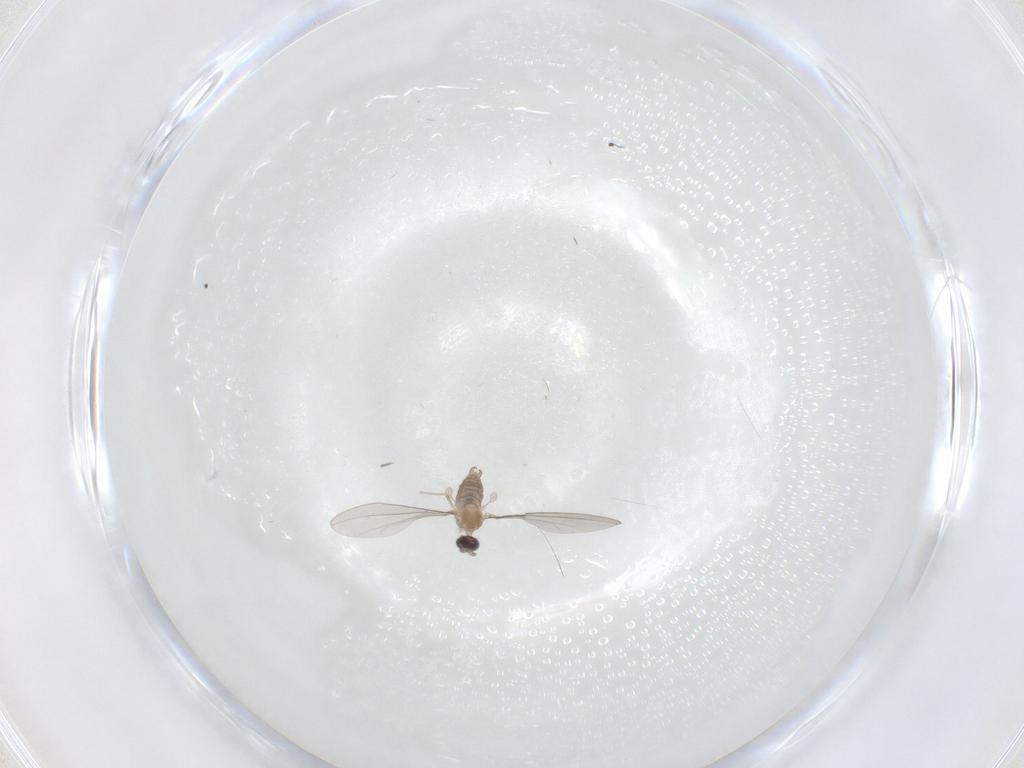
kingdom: Animalia
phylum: Arthropoda
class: Insecta
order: Diptera
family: Cecidomyiidae
